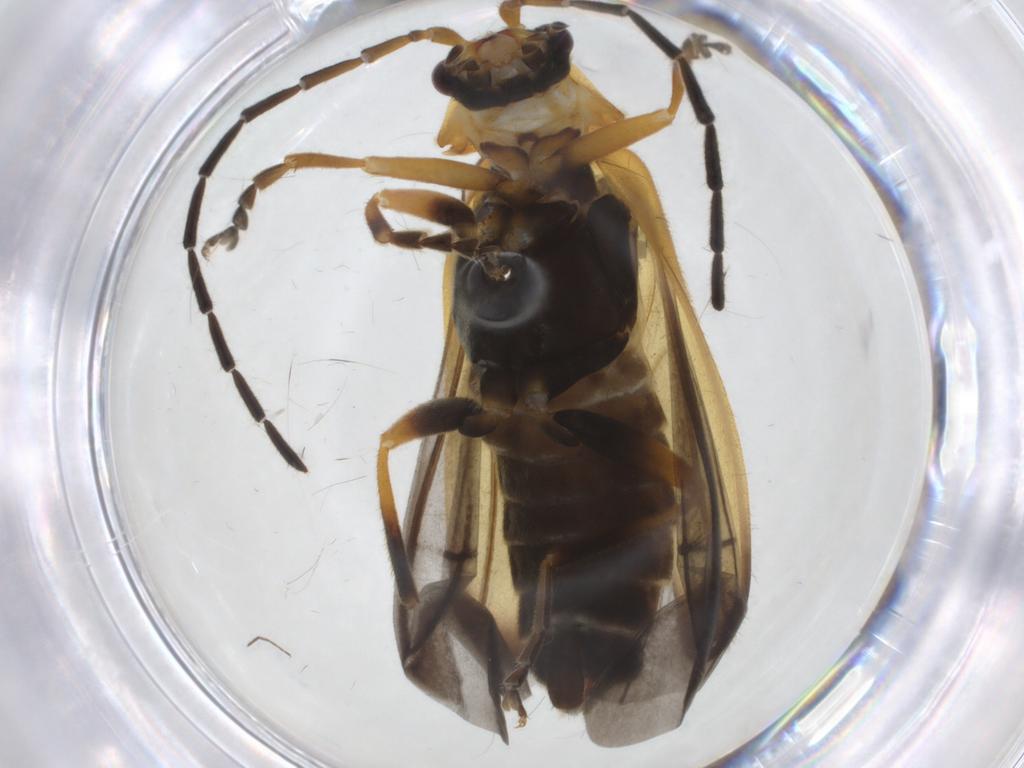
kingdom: Animalia
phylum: Arthropoda
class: Insecta
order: Coleoptera
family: Cantharidae
